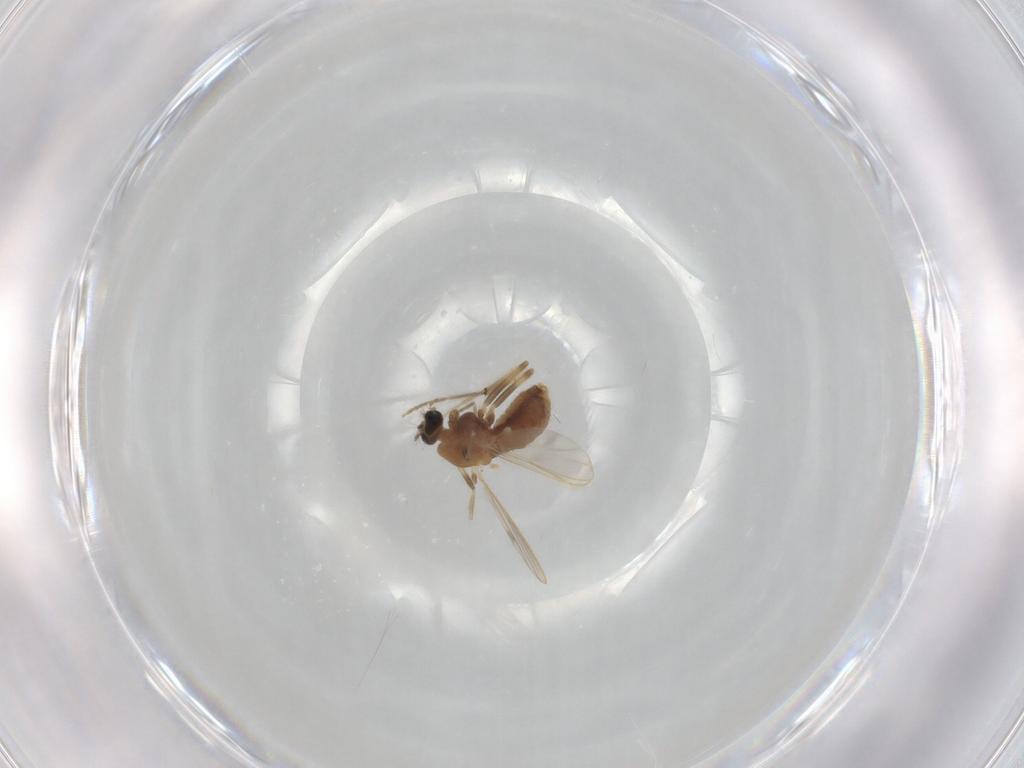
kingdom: Animalia
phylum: Arthropoda
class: Insecta
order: Diptera
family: Chironomidae
